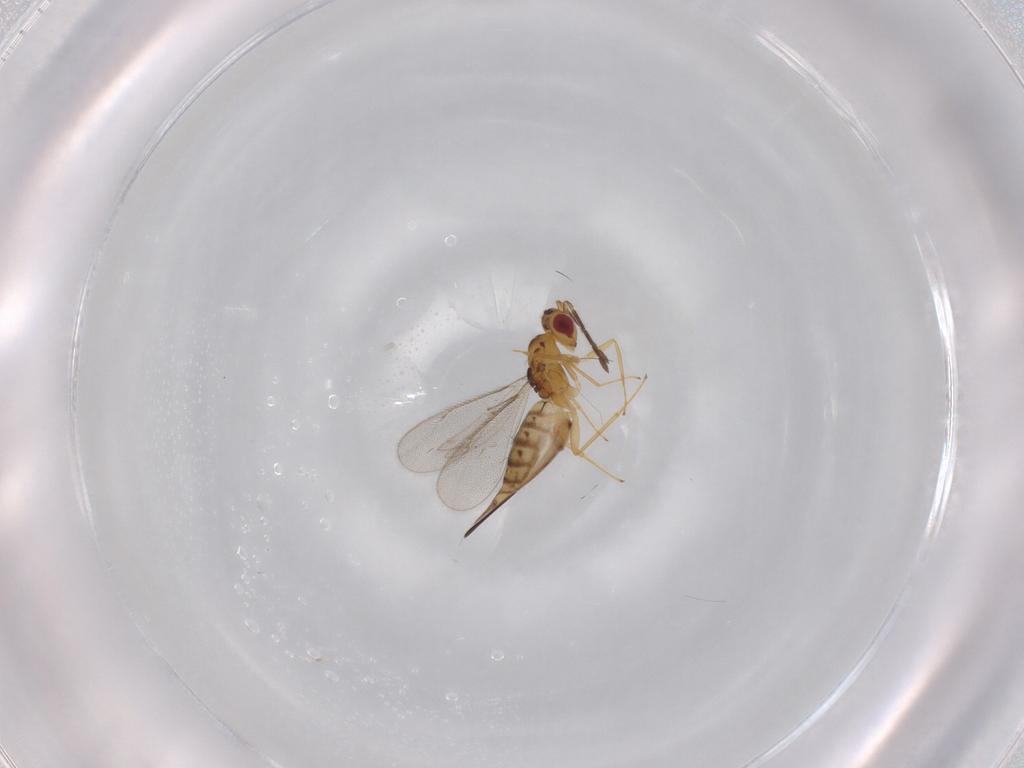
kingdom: Animalia
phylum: Arthropoda
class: Insecta
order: Hymenoptera
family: Eulophidae
